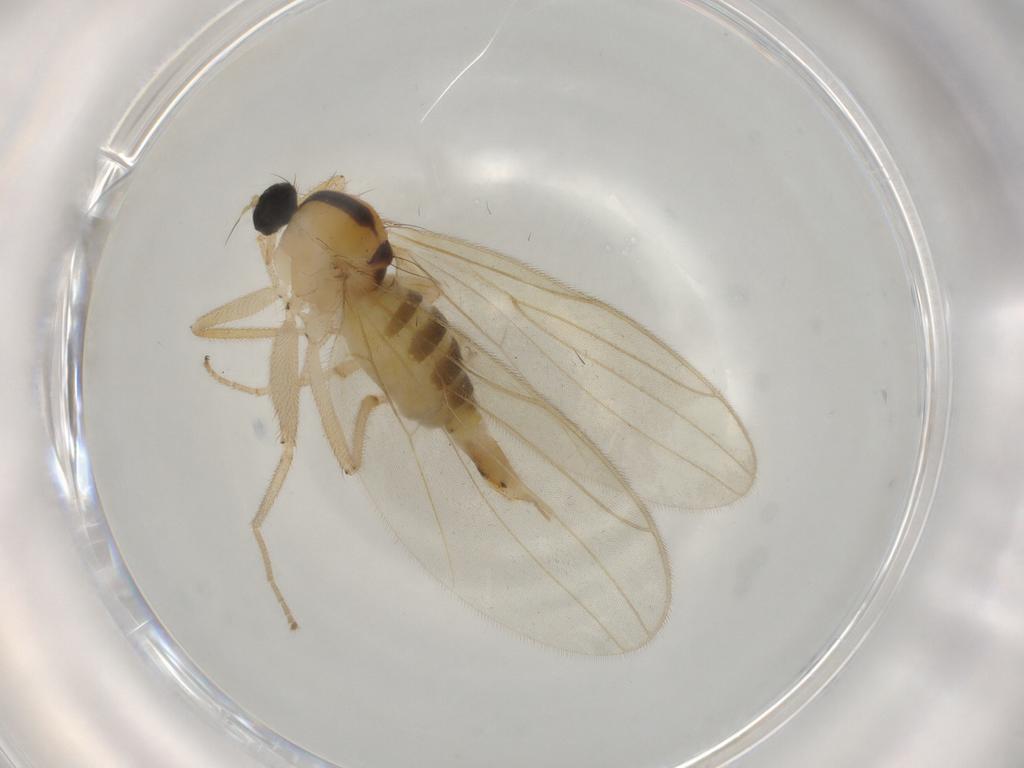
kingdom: Animalia
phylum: Arthropoda
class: Insecta
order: Diptera
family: Hybotidae
